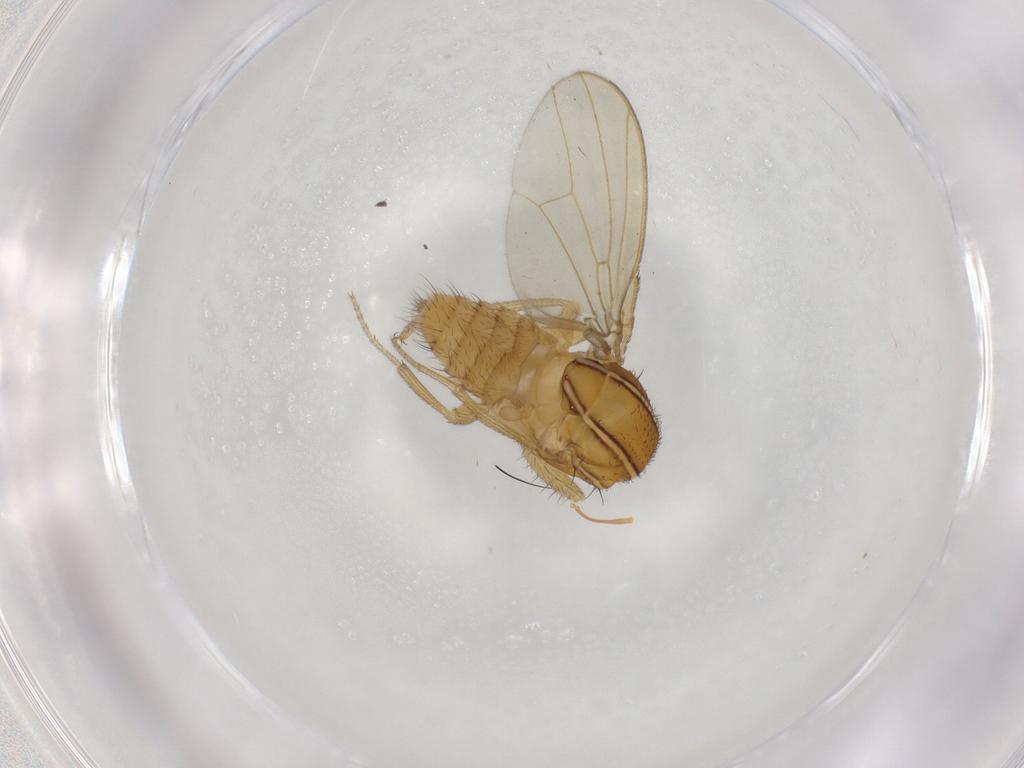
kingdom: Animalia
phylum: Arthropoda
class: Insecta
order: Diptera
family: Drosophilidae
